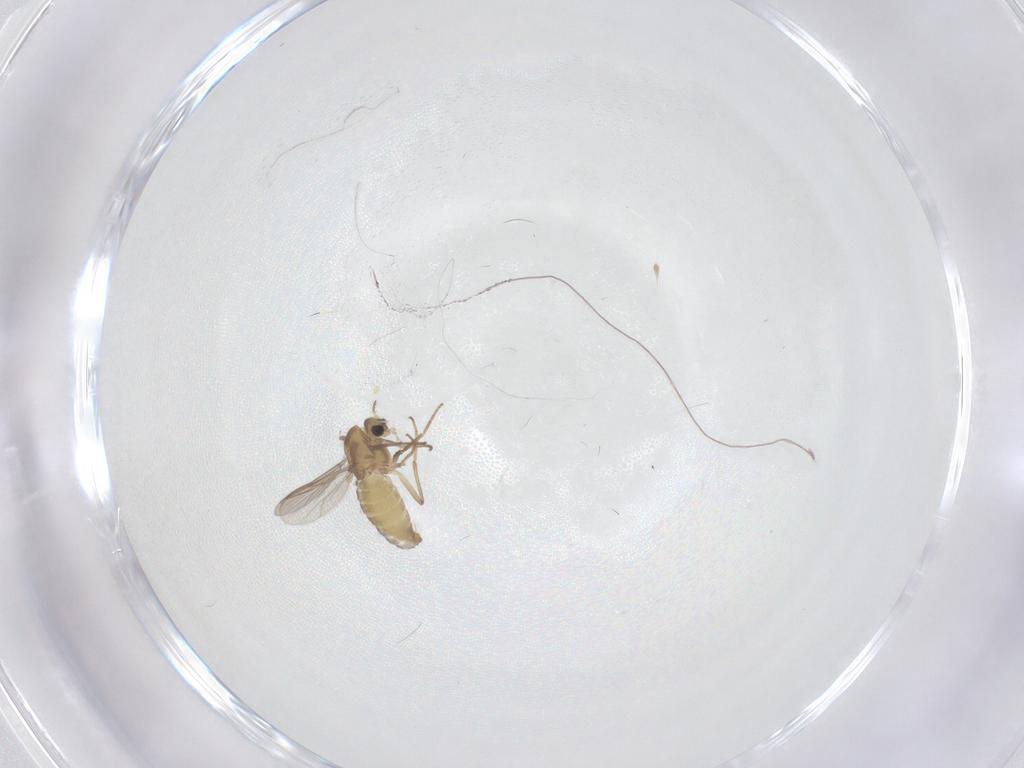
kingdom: Animalia
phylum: Arthropoda
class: Insecta
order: Diptera
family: Chironomidae
